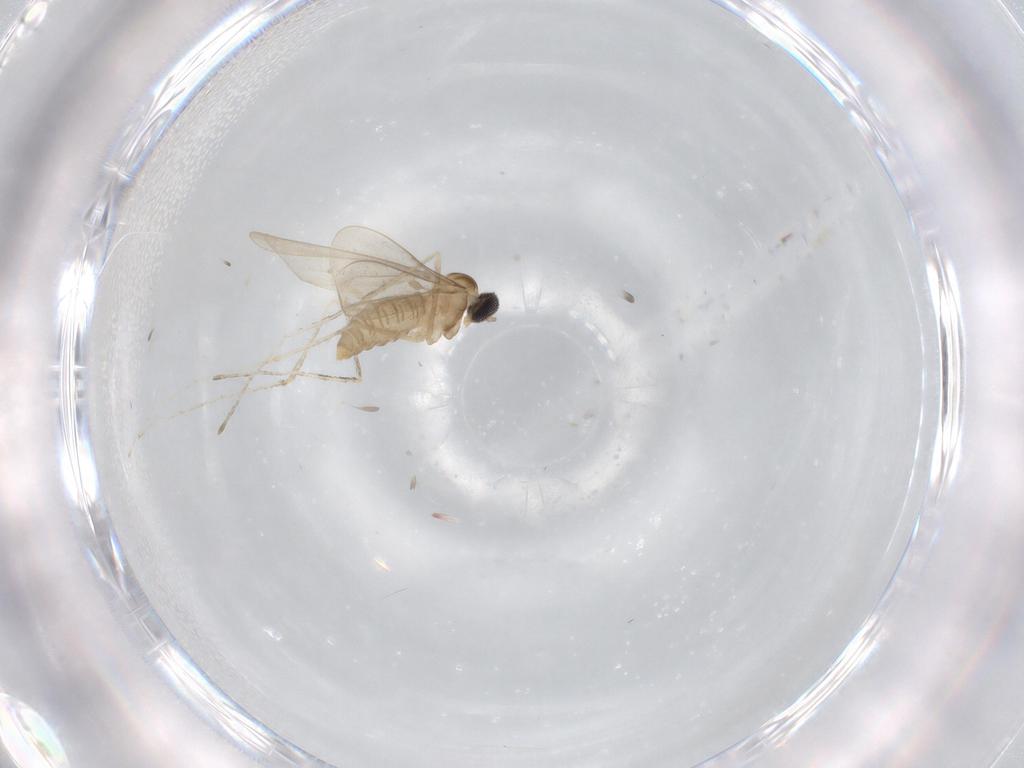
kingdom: Animalia
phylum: Arthropoda
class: Insecta
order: Diptera
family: Cecidomyiidae
